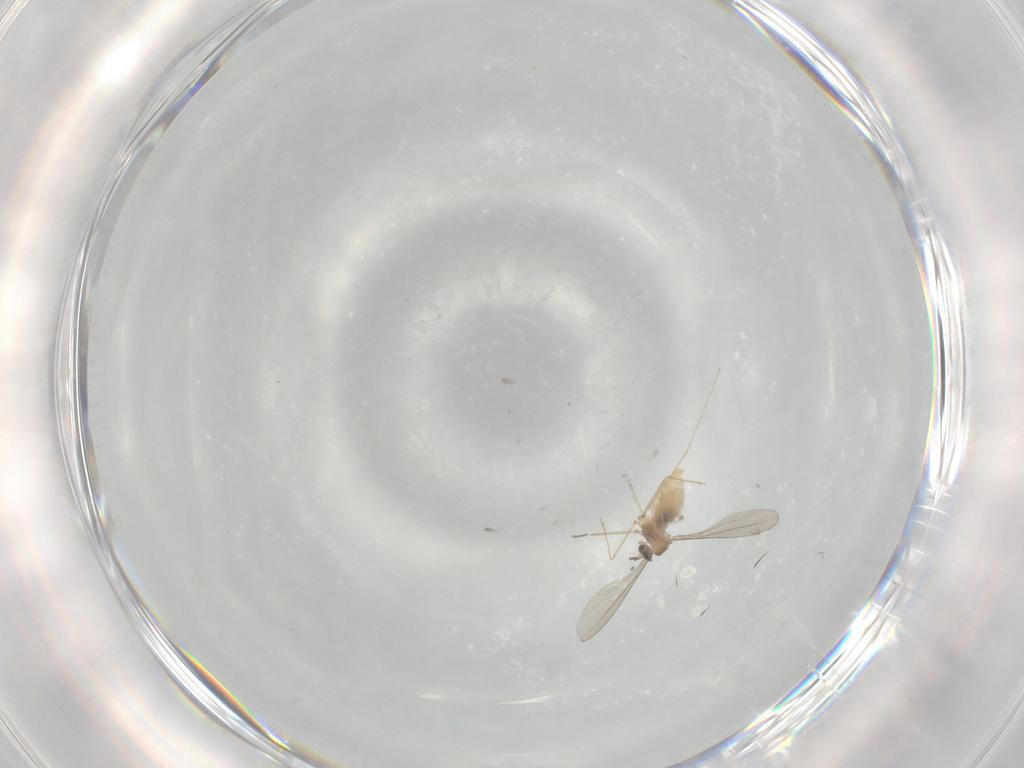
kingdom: Animalia
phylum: Arthropoda
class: Insecta
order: Diptera
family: Cecidomyiidae
